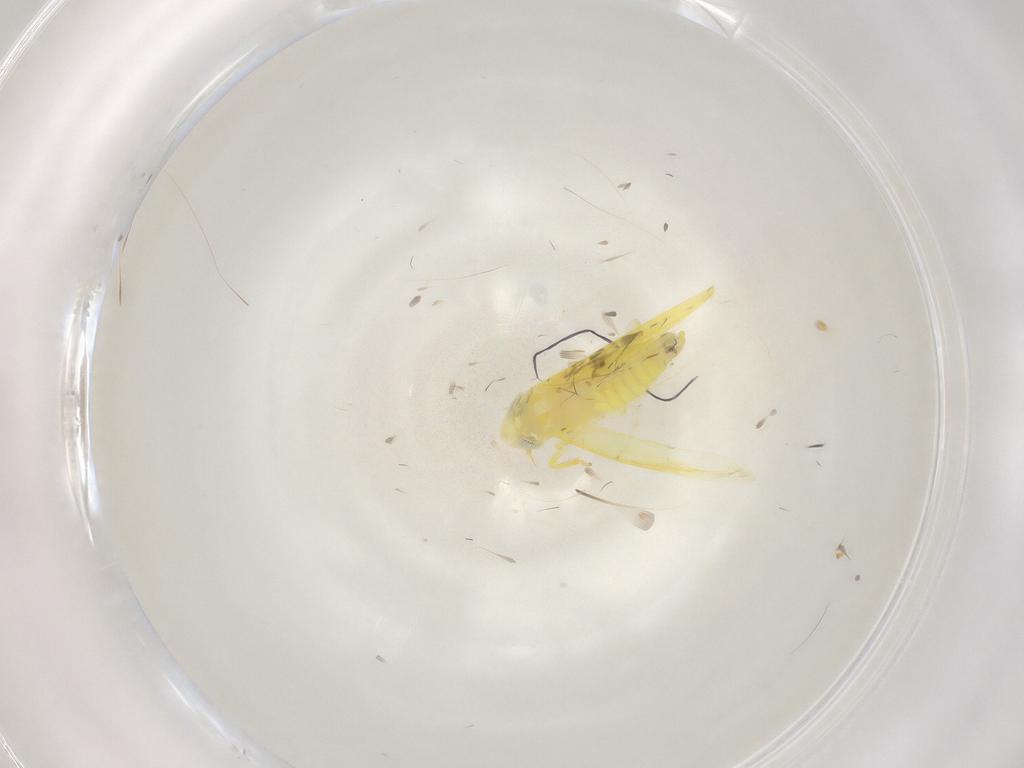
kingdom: Animalia
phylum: Arthropoda
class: Insecta
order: Hemiptera
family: Cicadellidae
